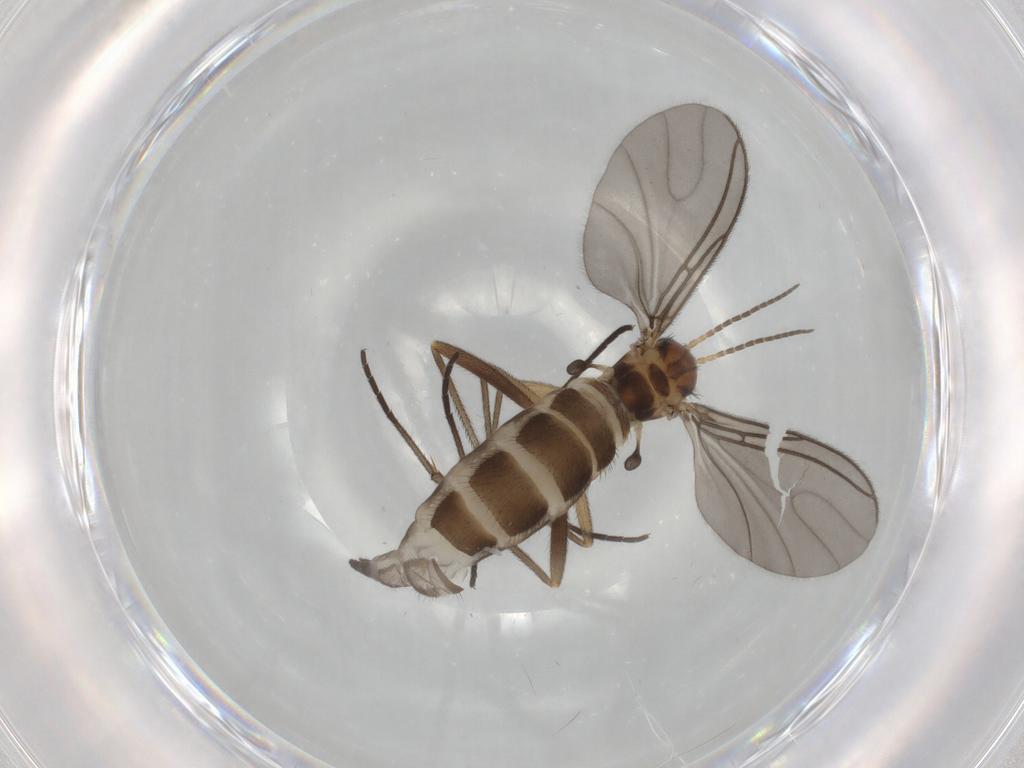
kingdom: Animalia
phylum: Arthropoda
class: Insecta
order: Diptera
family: Sciaridae
